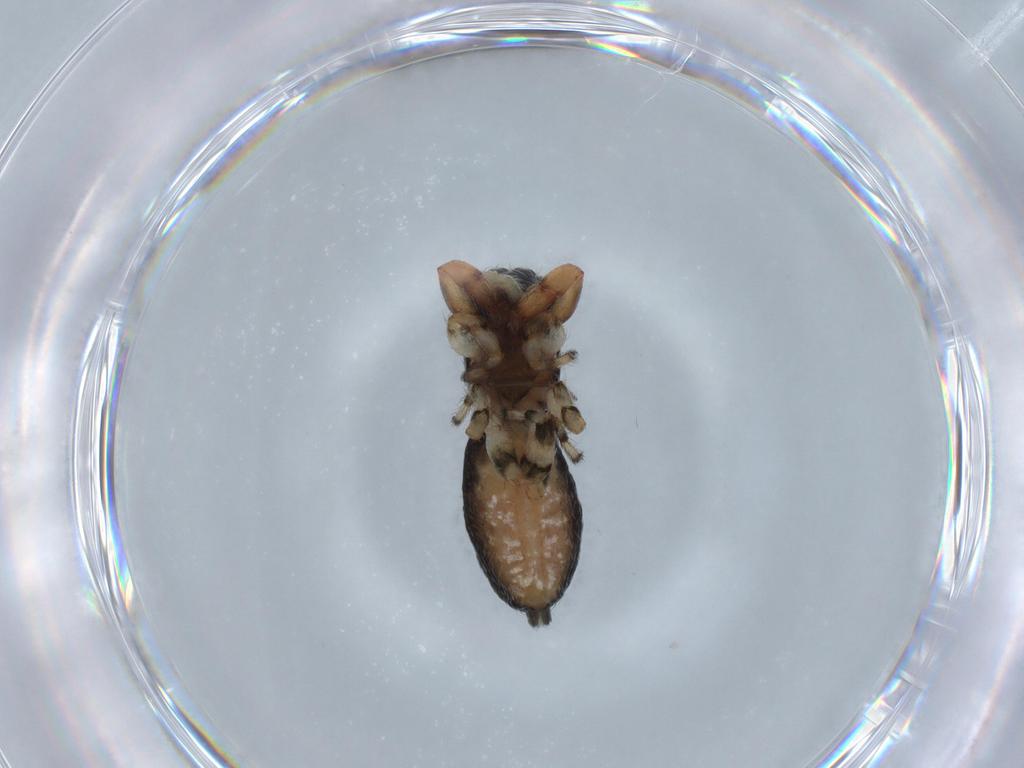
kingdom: Animalia
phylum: Arthropoda
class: Arachnida
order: Araneae
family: Salticidae
